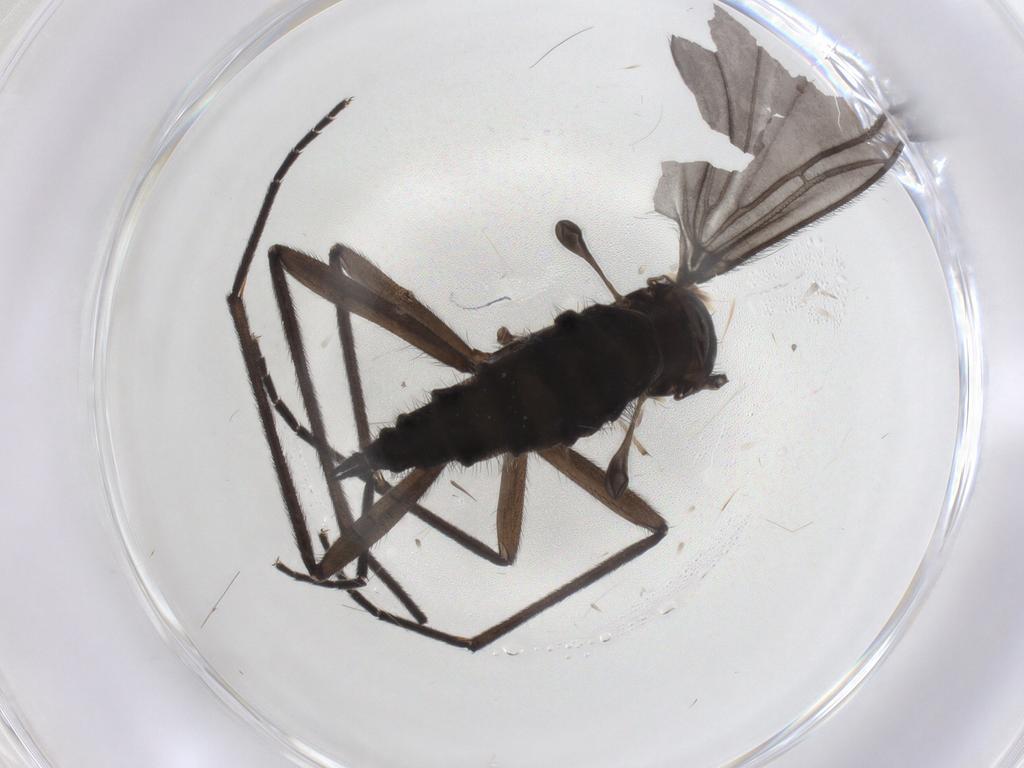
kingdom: Animalia
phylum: Arthropoda
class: Insecta
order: Diptera
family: Sciaridae
